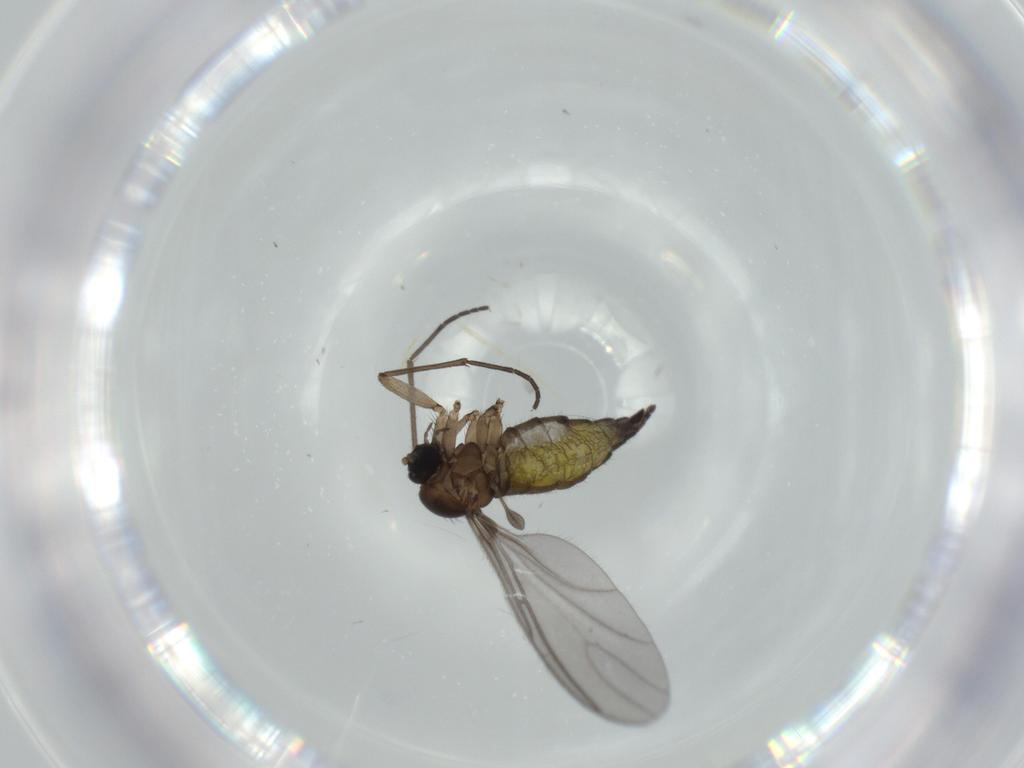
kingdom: Animalia
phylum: Arthropoda
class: Insecta
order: Diptera
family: Sciaridae
